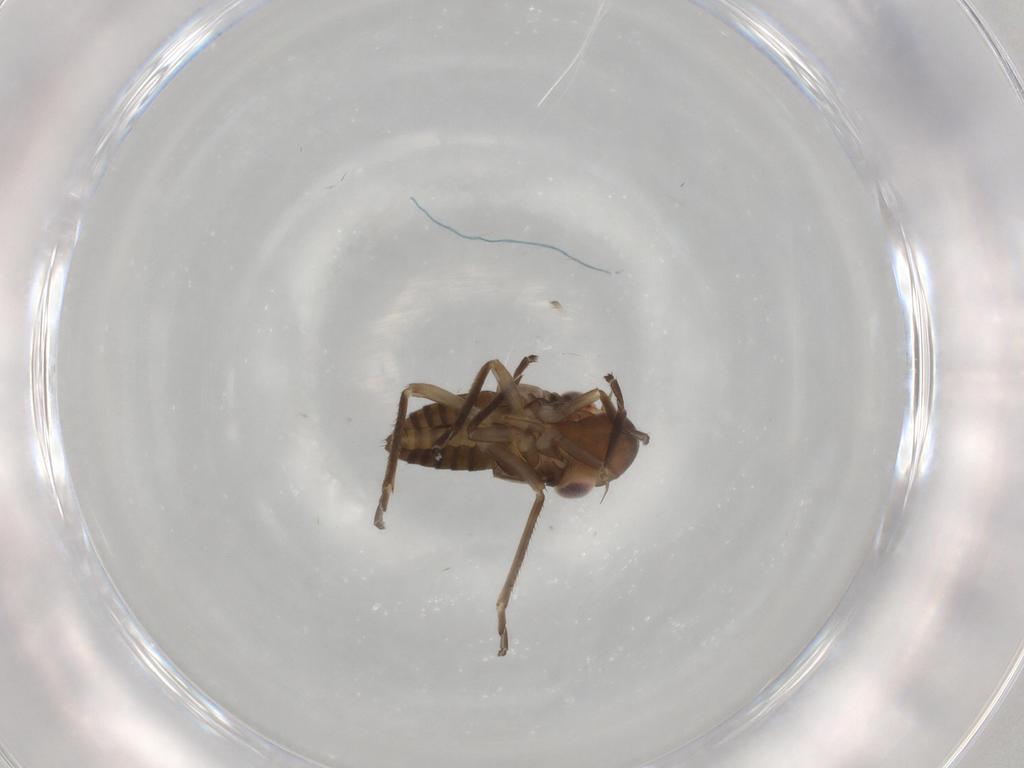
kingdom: Animalia
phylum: Arthropoda
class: Insecta
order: Hemiptera
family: Cicadellidae
